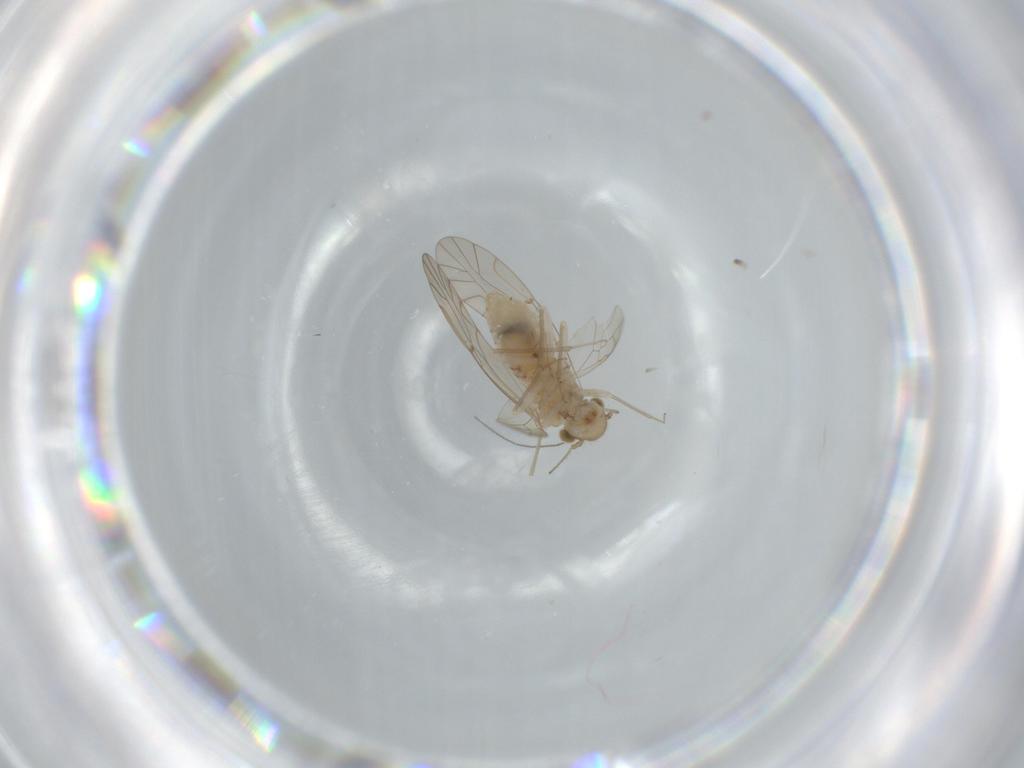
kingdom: Animalia
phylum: Arthropoda
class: Insecta
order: Psocodea
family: Lachesillidae
